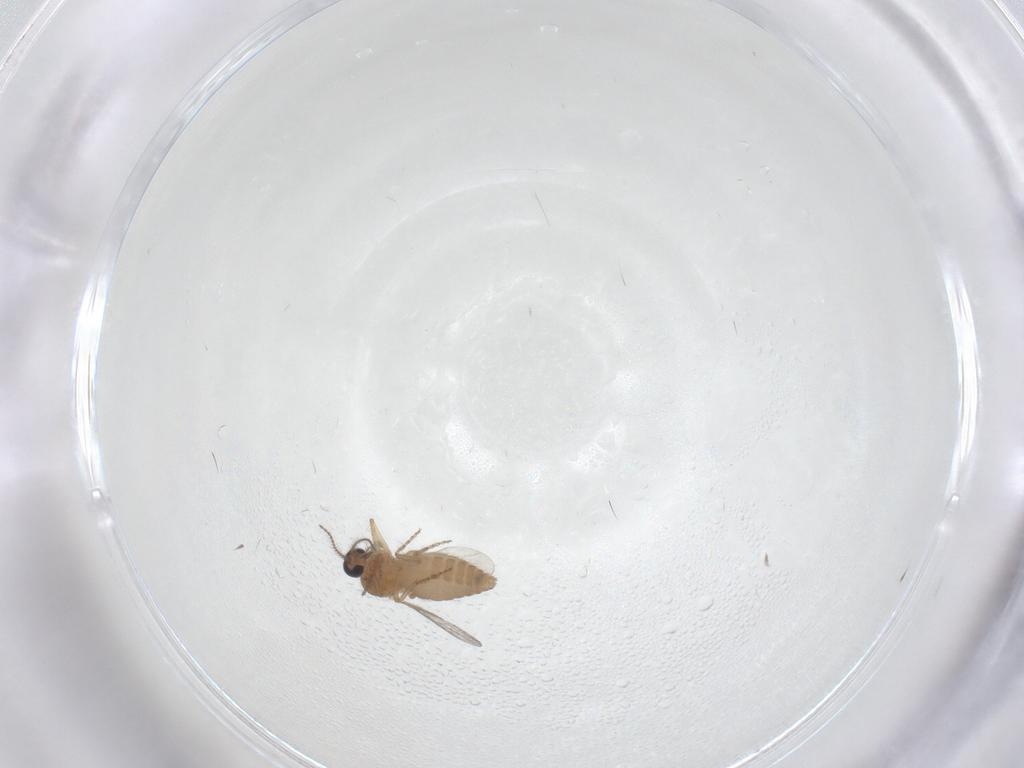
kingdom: Animalia
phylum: Arthropoda
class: Insecta
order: Diptera
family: Ceratopogonidae
